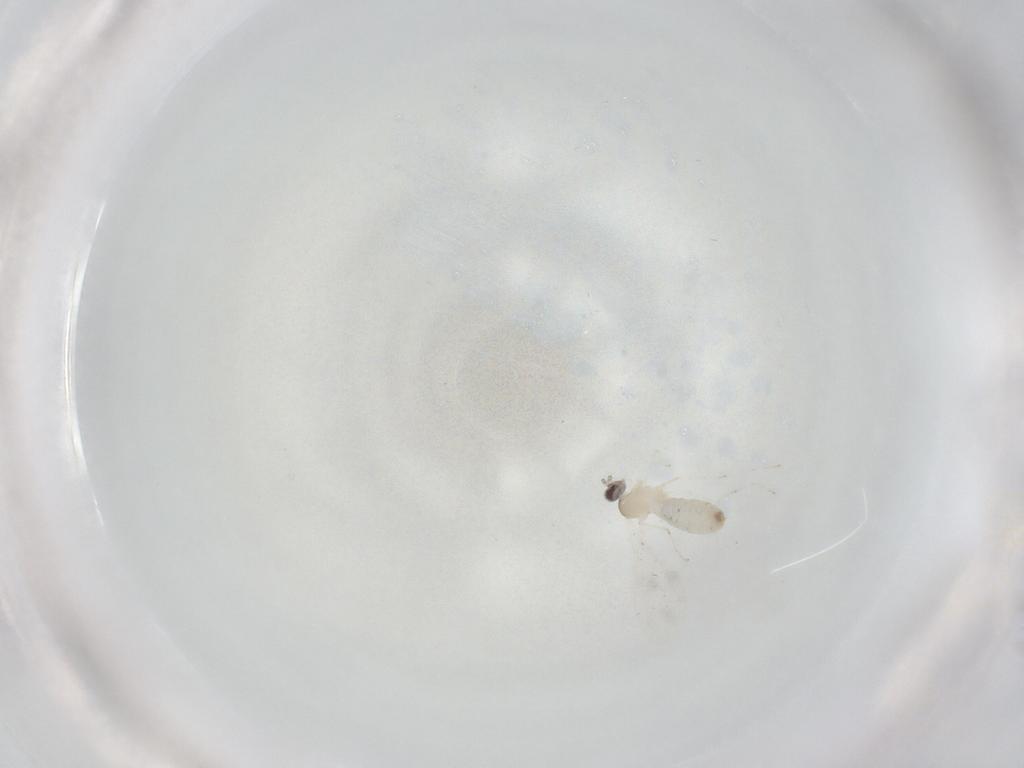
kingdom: Animalia
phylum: Arthropoda
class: Insecta
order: Diptera
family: Cecidomyiidae
